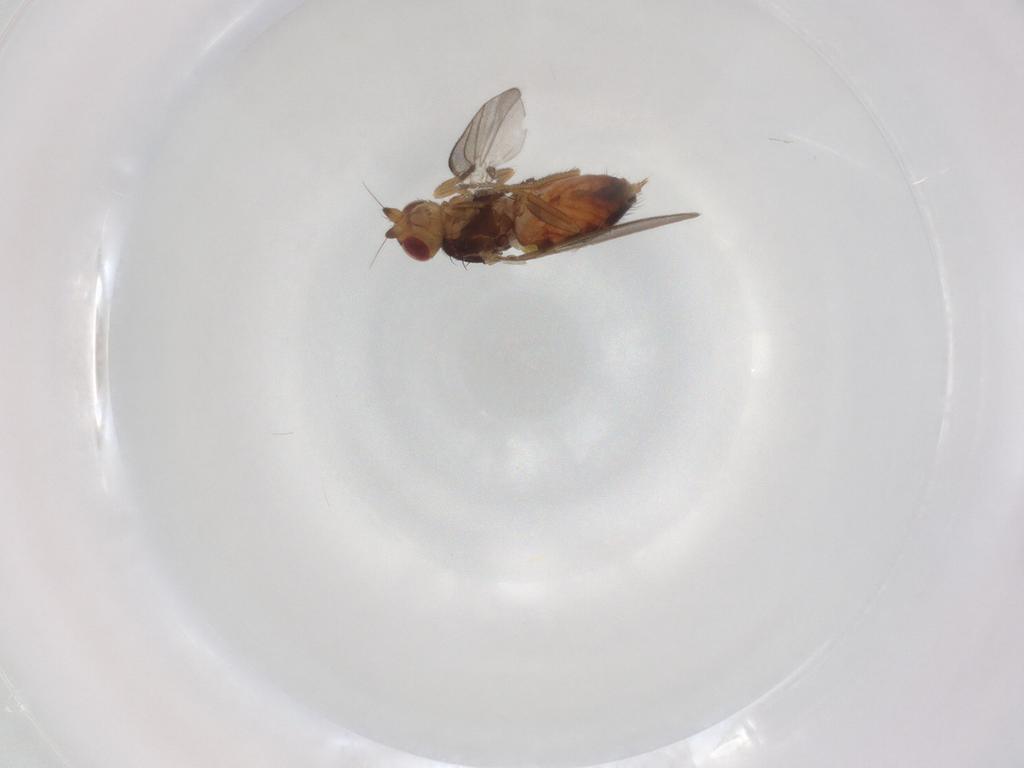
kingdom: Animalia
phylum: Arthropoda
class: Insecta
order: Diptera
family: Milichiidae
